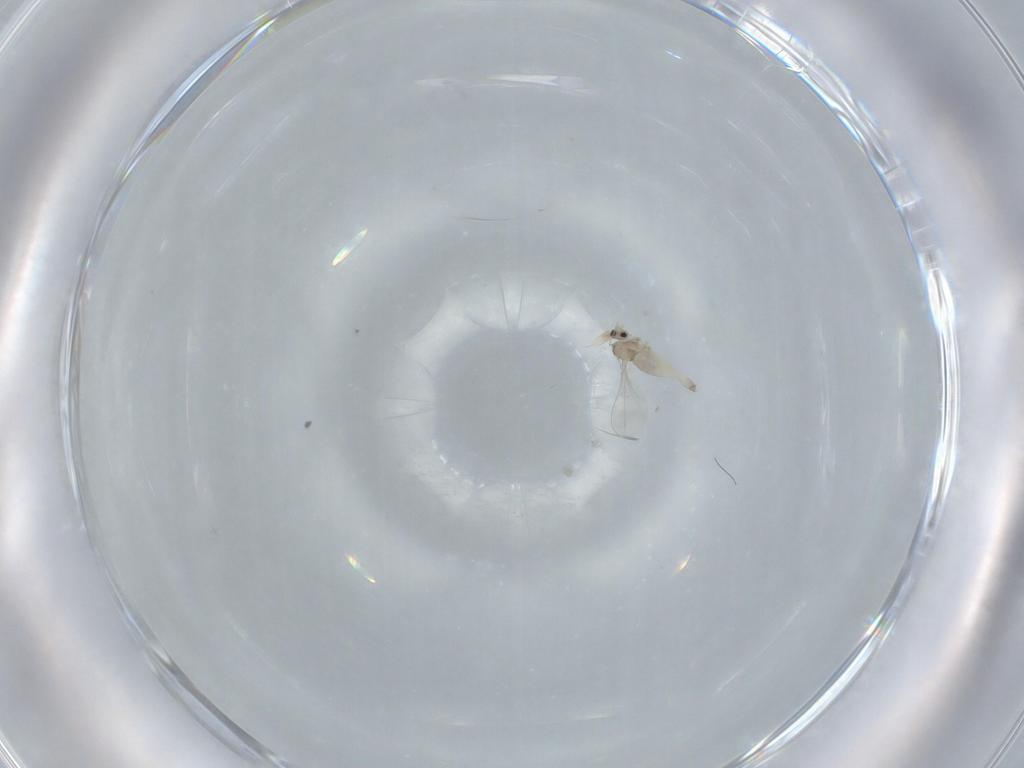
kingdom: Animalia
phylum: Arthropoda
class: Insecta
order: Diptera
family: Cecidomyiidae
